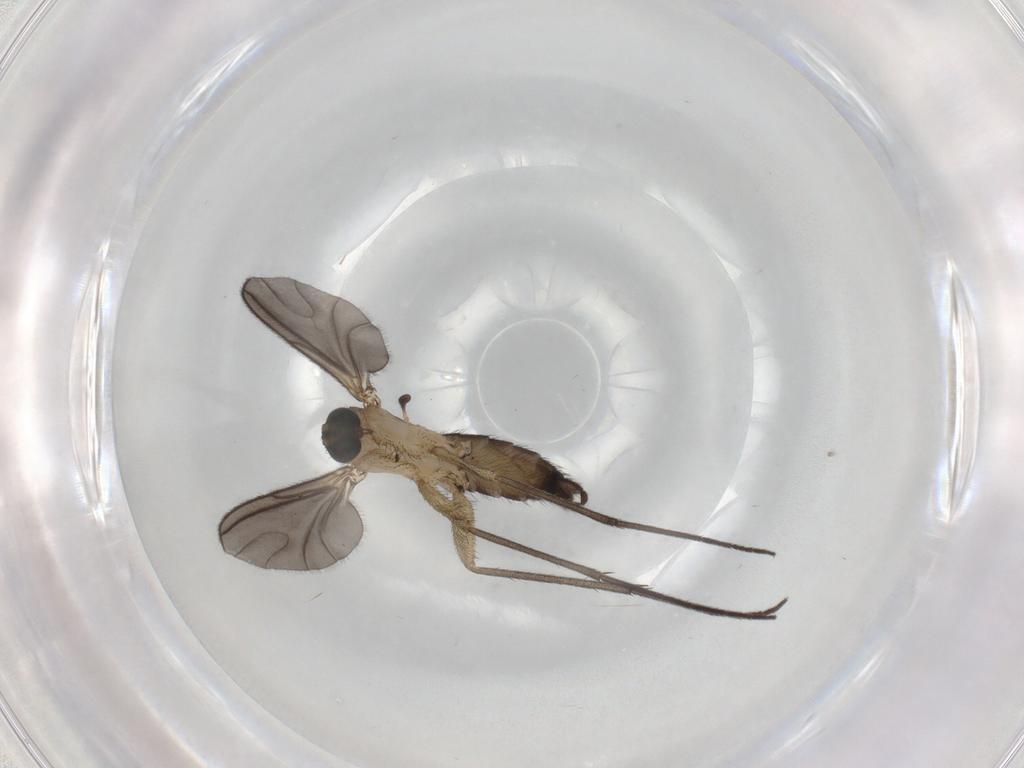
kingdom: Animalia
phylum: Arthropoda
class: Insecta
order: Diptera
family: Sciaridae
